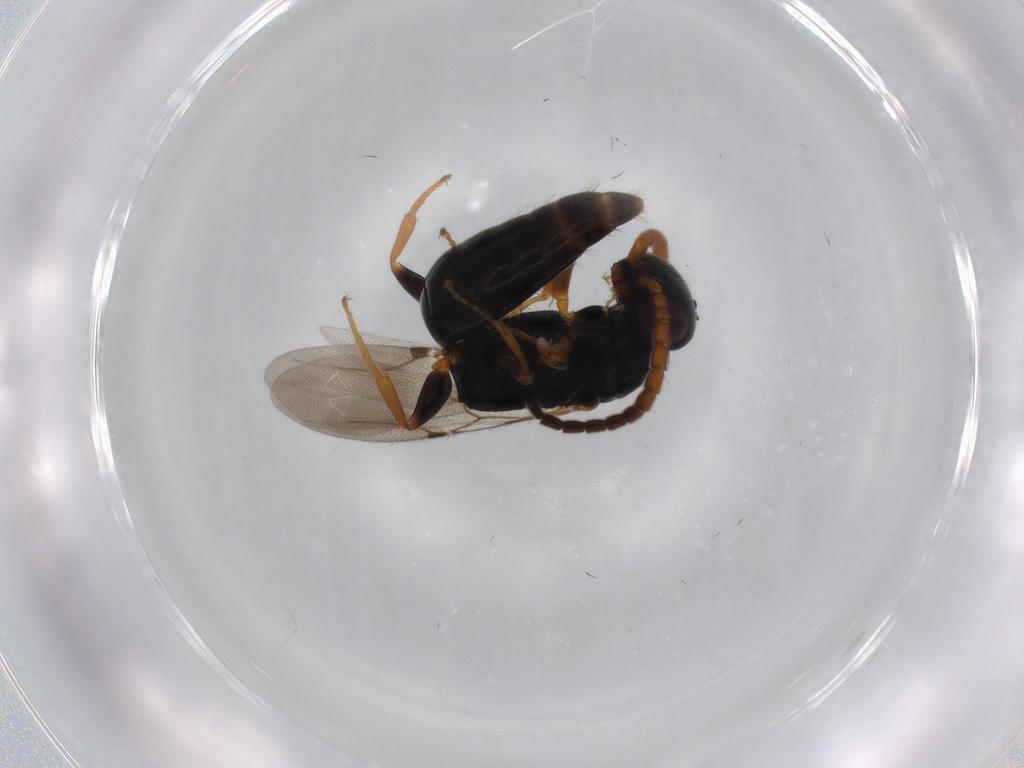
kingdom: Animalia
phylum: Arthropoda
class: Insecta
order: Hymenoptera
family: Bethylidae
